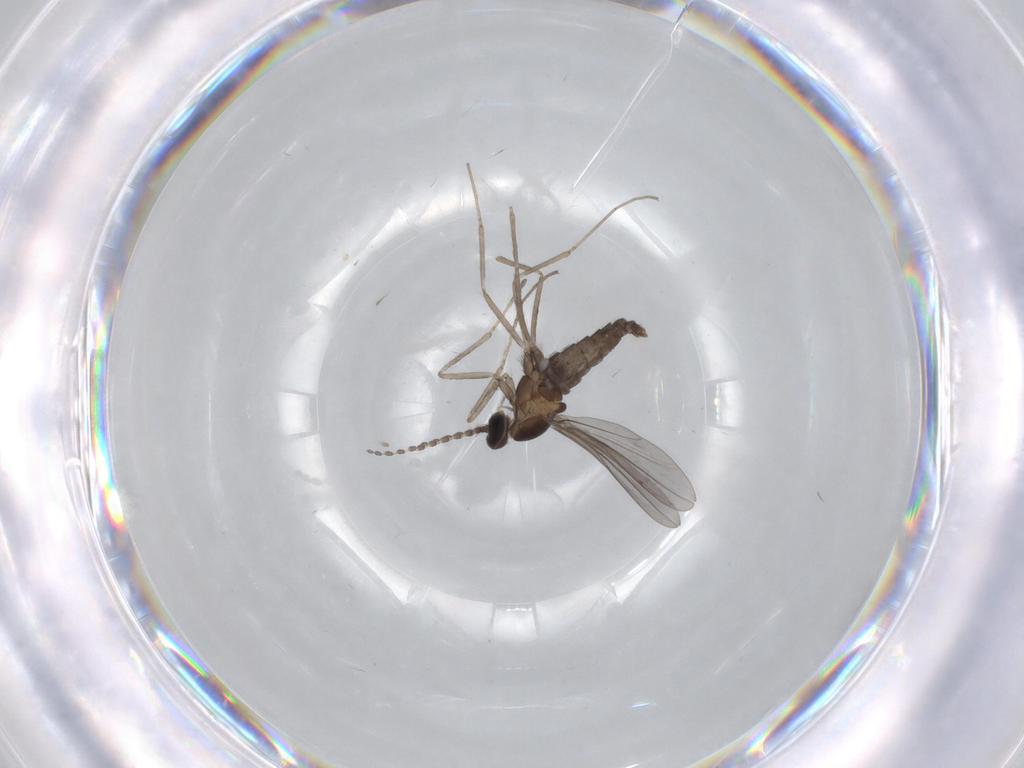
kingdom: Animalia
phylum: Arthropoda
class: Insecta
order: Diptera
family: Cecidomyiidae
